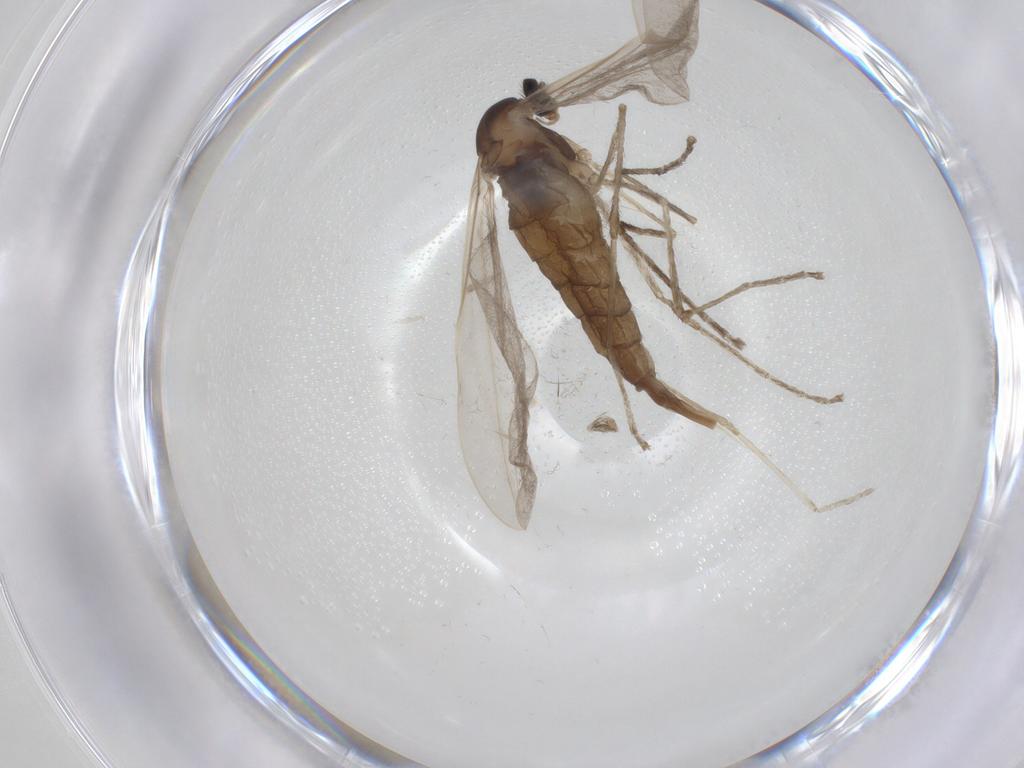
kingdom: Animalia
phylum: Arthropoda
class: Insecta
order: Diptera
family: Cecidomyiidae
